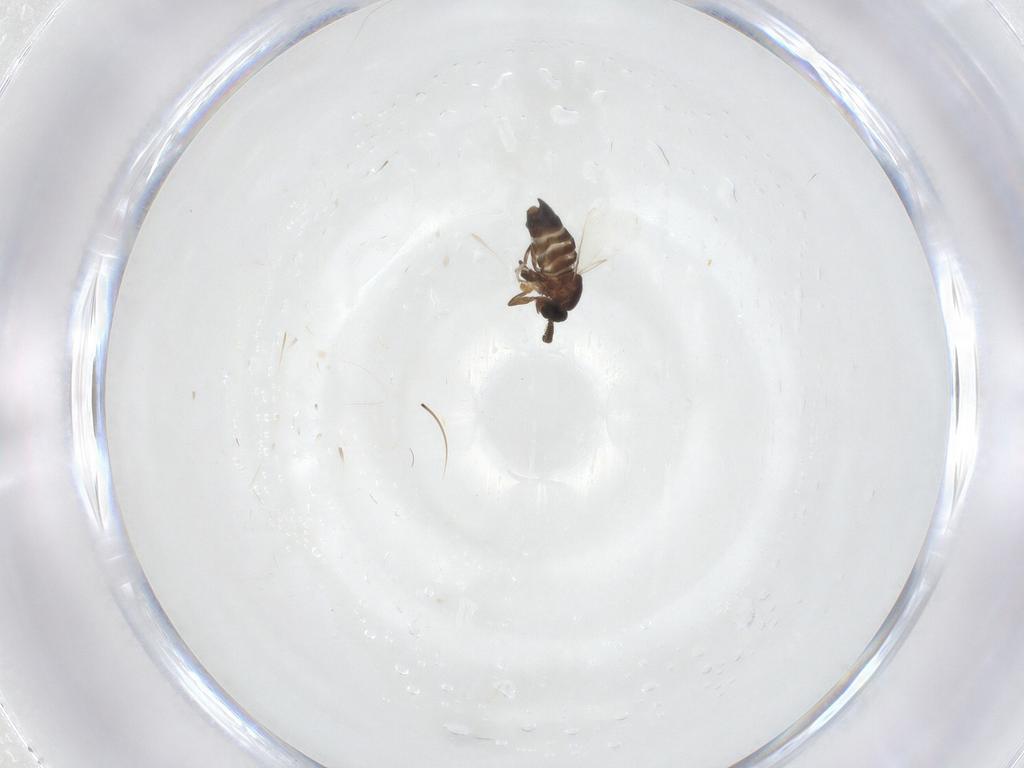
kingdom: Animalia
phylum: Arthropoda
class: Insecta
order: Diptera
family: Scatopsidae
